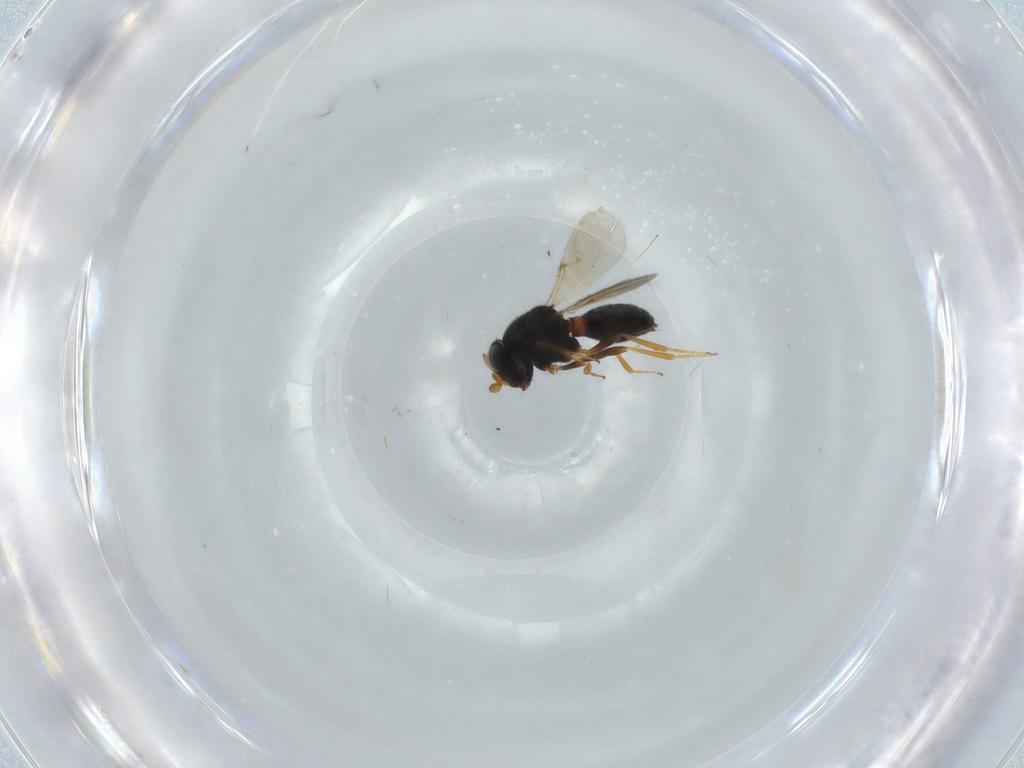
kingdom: Animalia
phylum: Arthropoda
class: Insecta
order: Hymenoptera
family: Scelionidae
